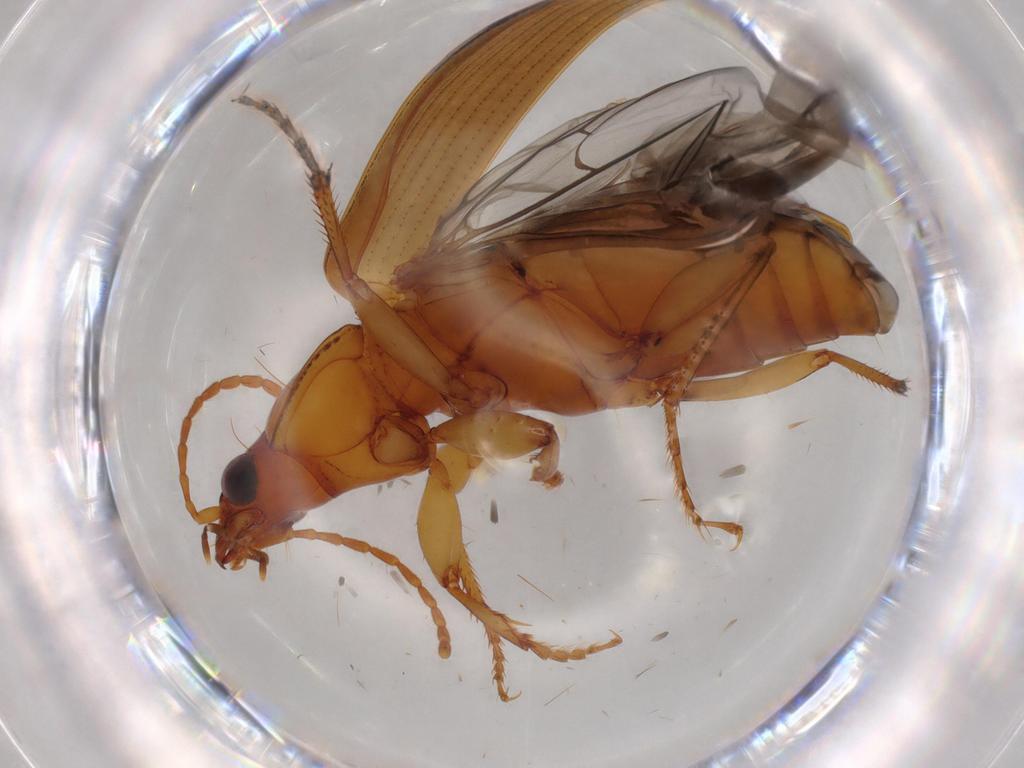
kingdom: Animalia
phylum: Arthropoda
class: Insecta
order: Coleoptera
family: Carabidae
